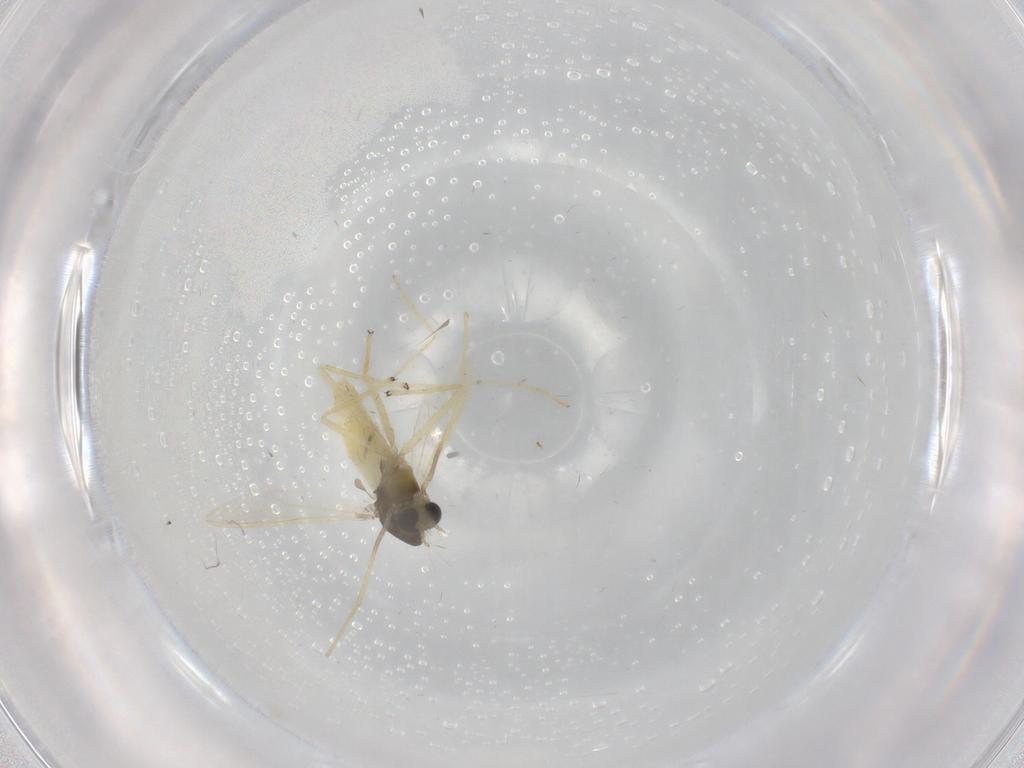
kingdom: Animalia
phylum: Arthropoda
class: Insecta
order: Diptera
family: Chironomidae
